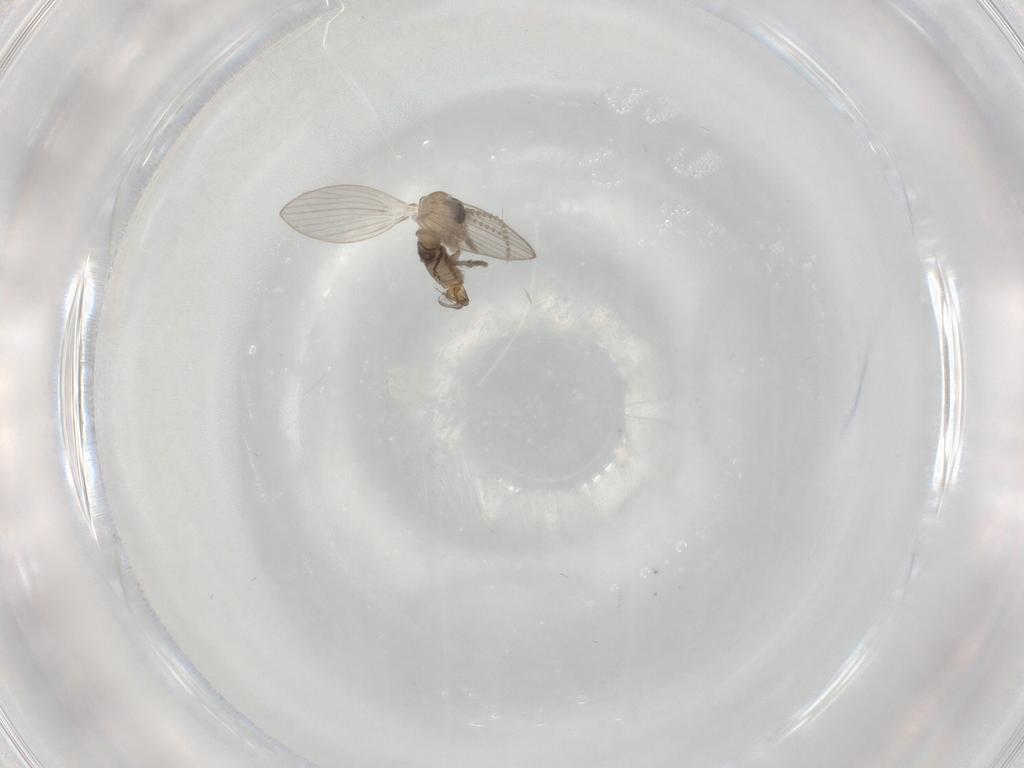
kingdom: Animalia
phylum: Arthropoda
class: Insecta
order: Diptera
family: Psychodidae
